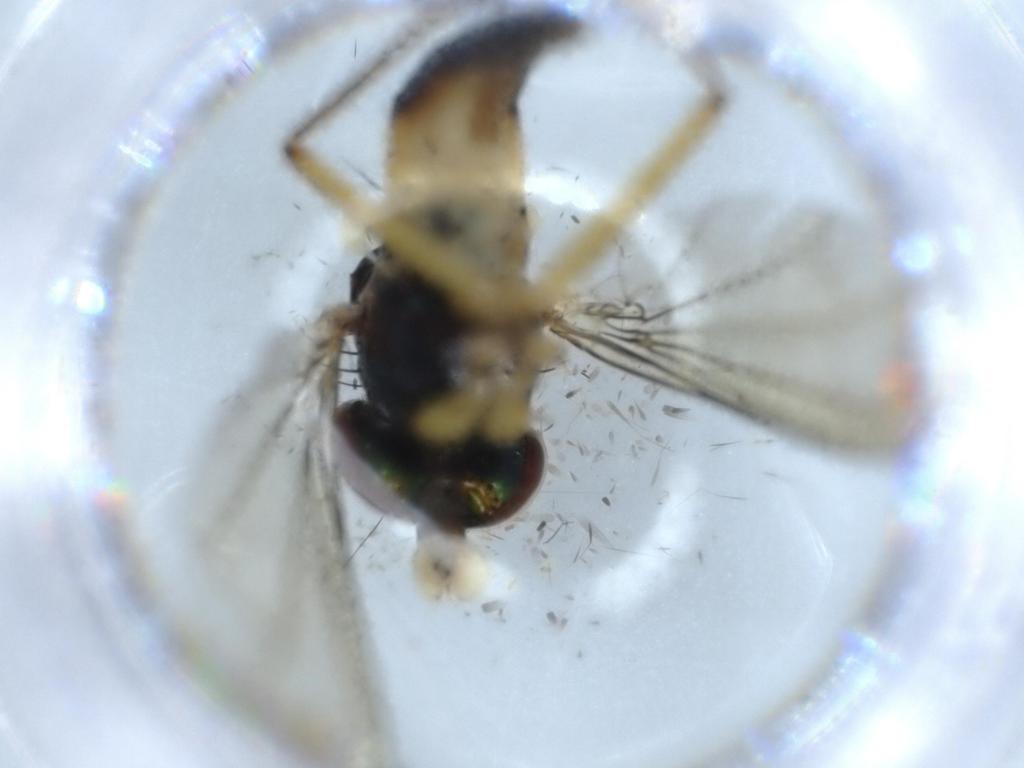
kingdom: Animalia
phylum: Arthropoda
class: Insecta
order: Diptera
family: Dolichopodidae
